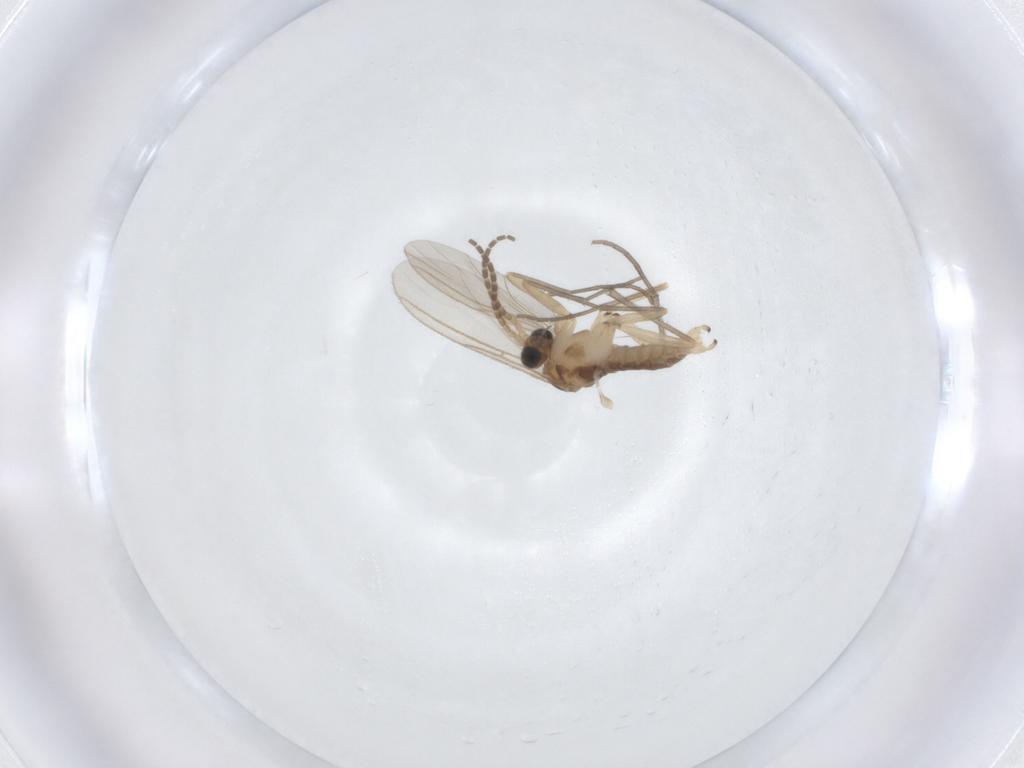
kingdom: Animalia
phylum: Arthropoda
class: Insecta
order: Diptera
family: Sciaridae
